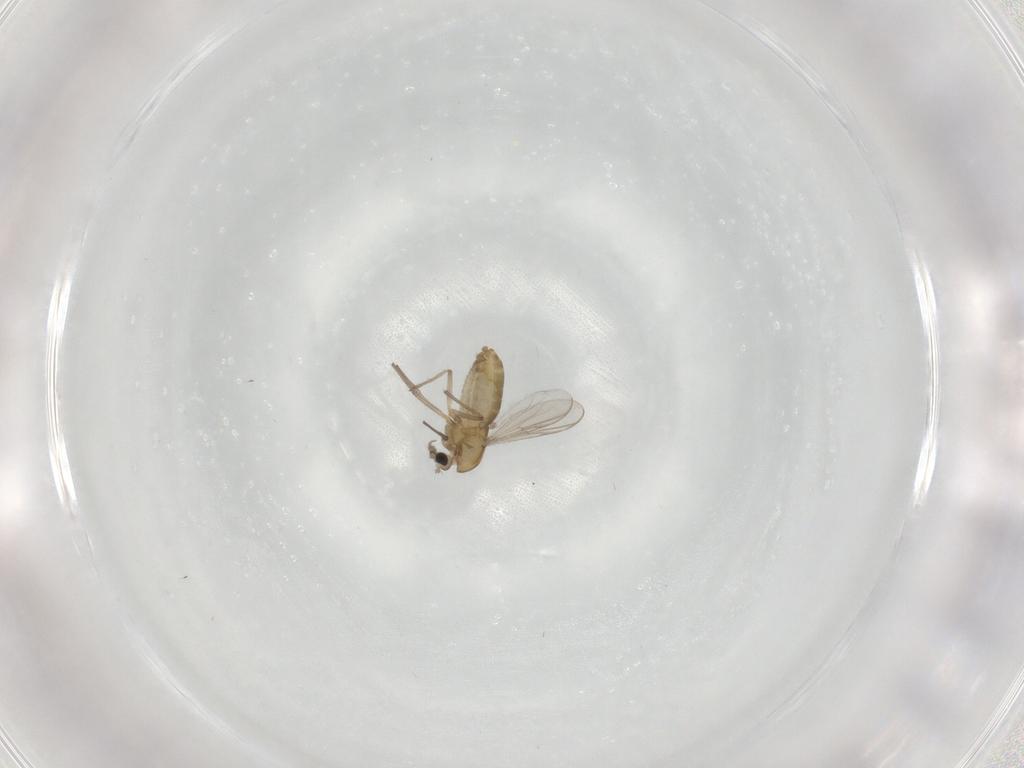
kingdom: Animalia
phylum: Arthropoda
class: Insecta
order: Diptera
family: Chironomidae
